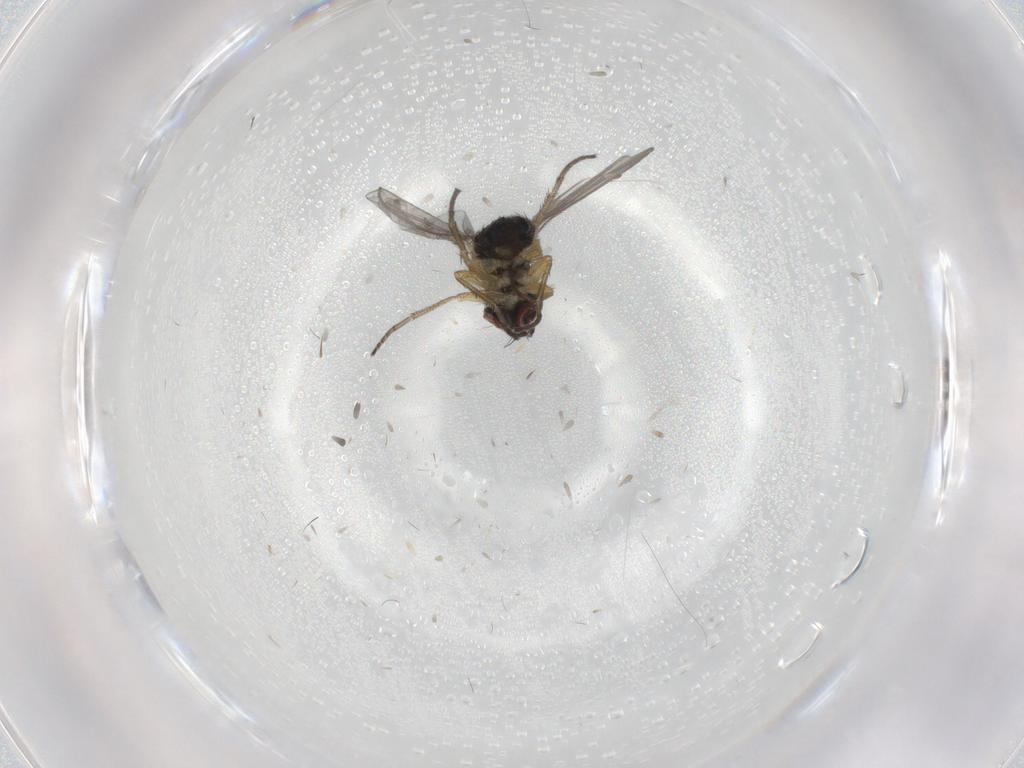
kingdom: Animalia
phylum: Arthropoda
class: Insecta
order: Diptera
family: Dolichopodidae
